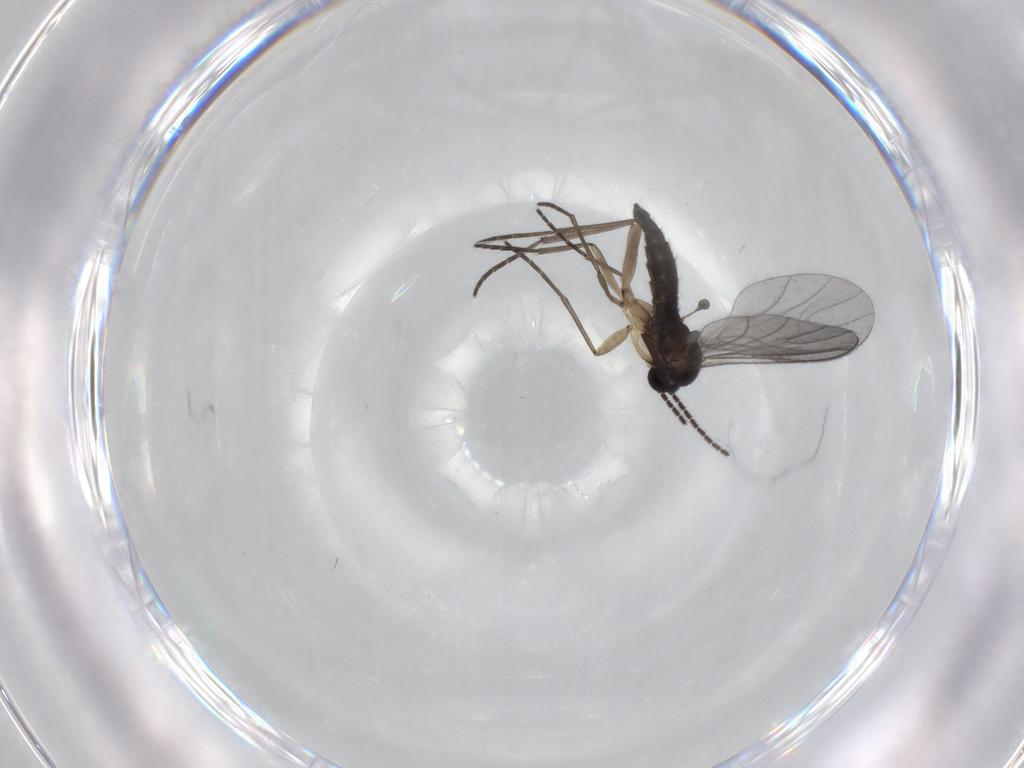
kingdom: Animalia
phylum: Arthropoda
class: Insecta
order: Diptera
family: Sciaridae
